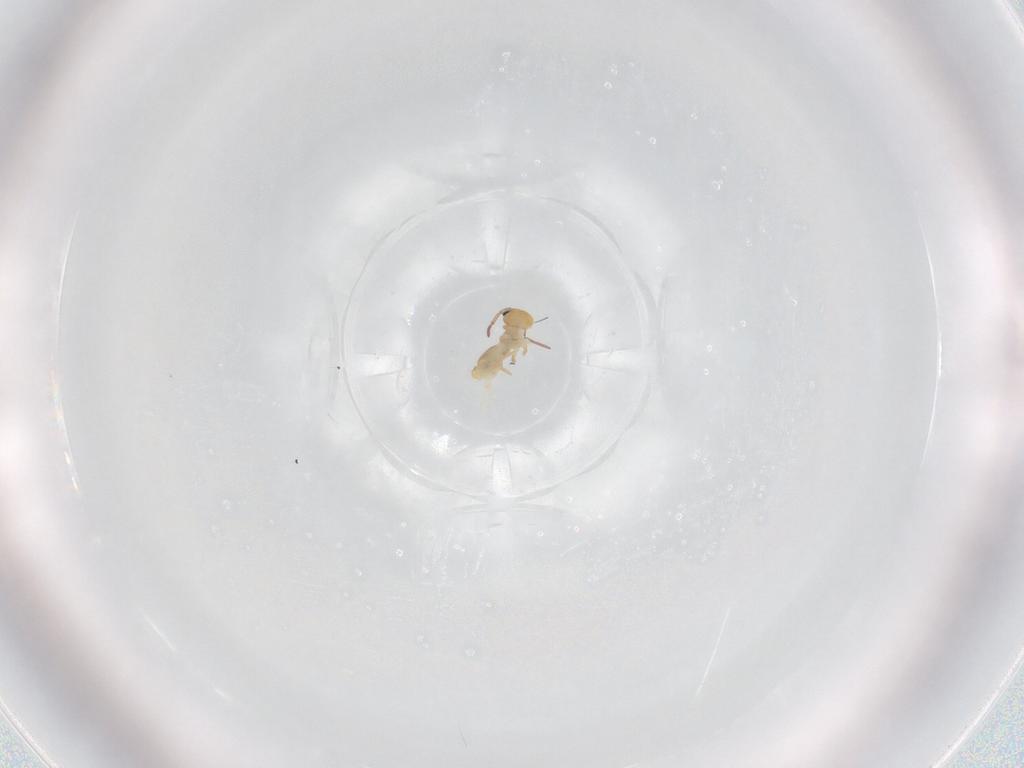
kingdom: Animalia
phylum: Arthropoda
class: Collembola
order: Symphypleona
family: Bourletiellidae
